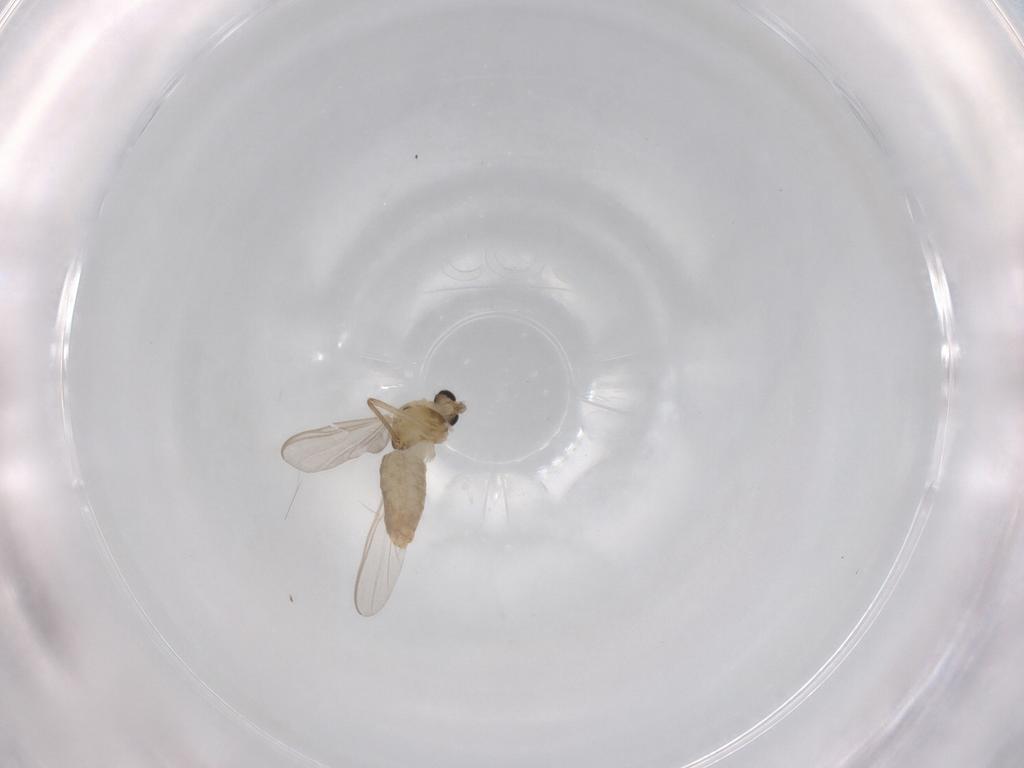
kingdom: Animalia
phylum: Arthropoda
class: Insecta
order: Diptera
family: Chironomidae
